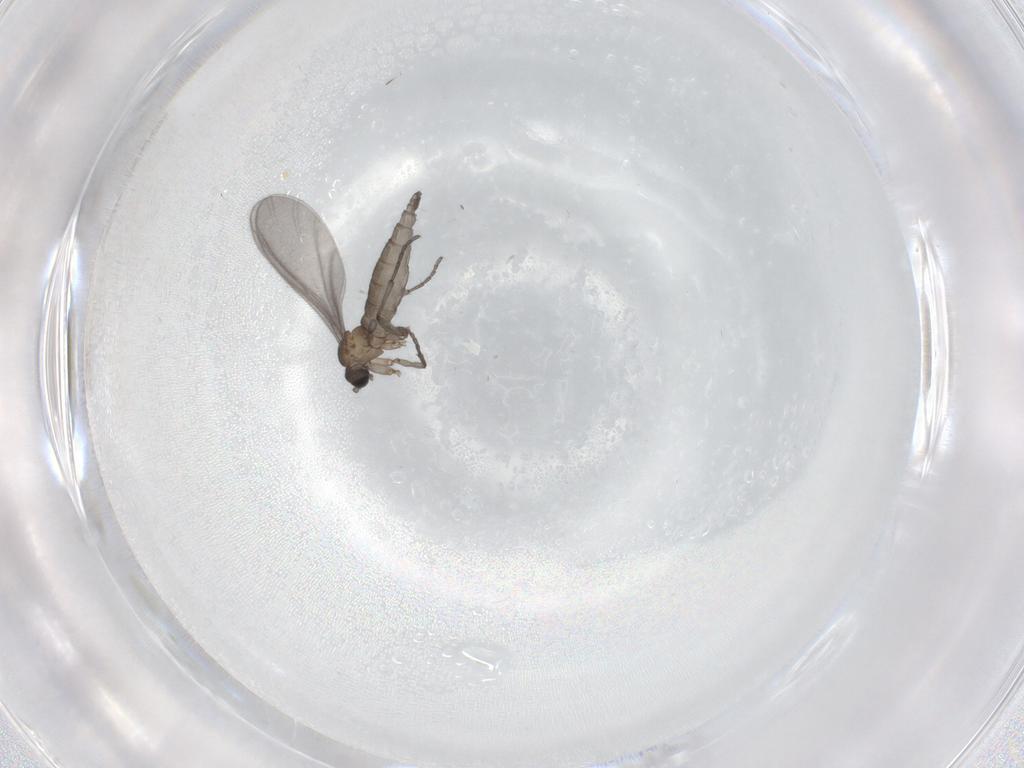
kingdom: Animalia
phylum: Arthropoda
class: Insecta
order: Diptera
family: Sciaridae
